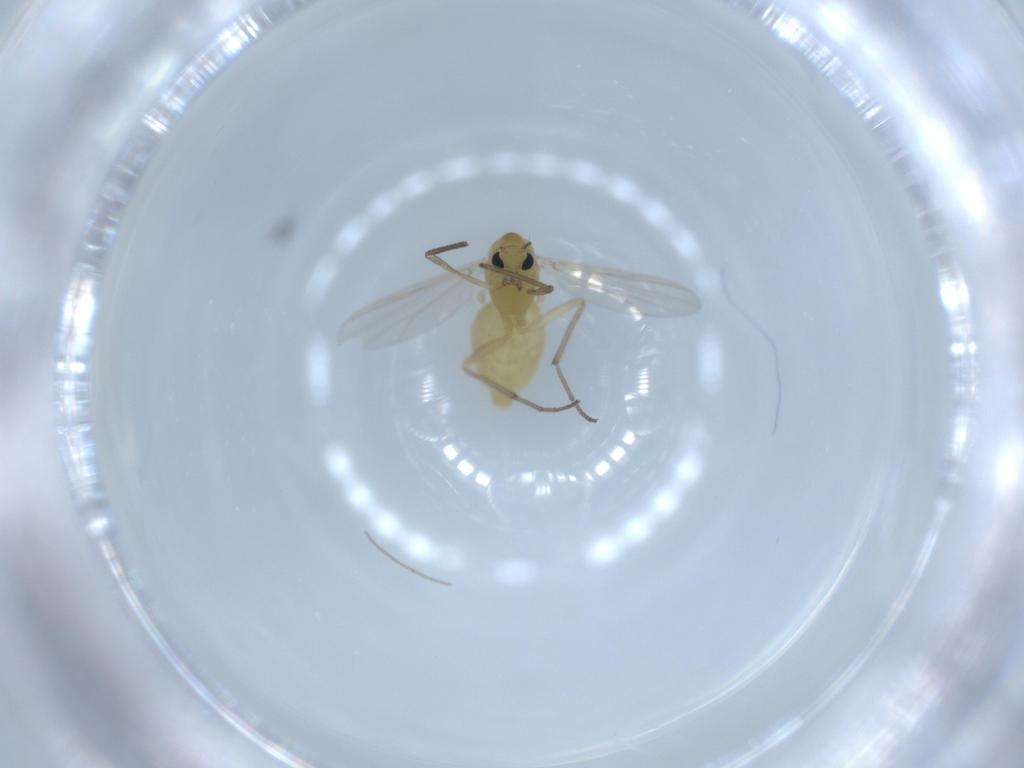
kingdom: Animalia
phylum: Arthropoda
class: Insecta
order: Diptera
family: Chironomidae
